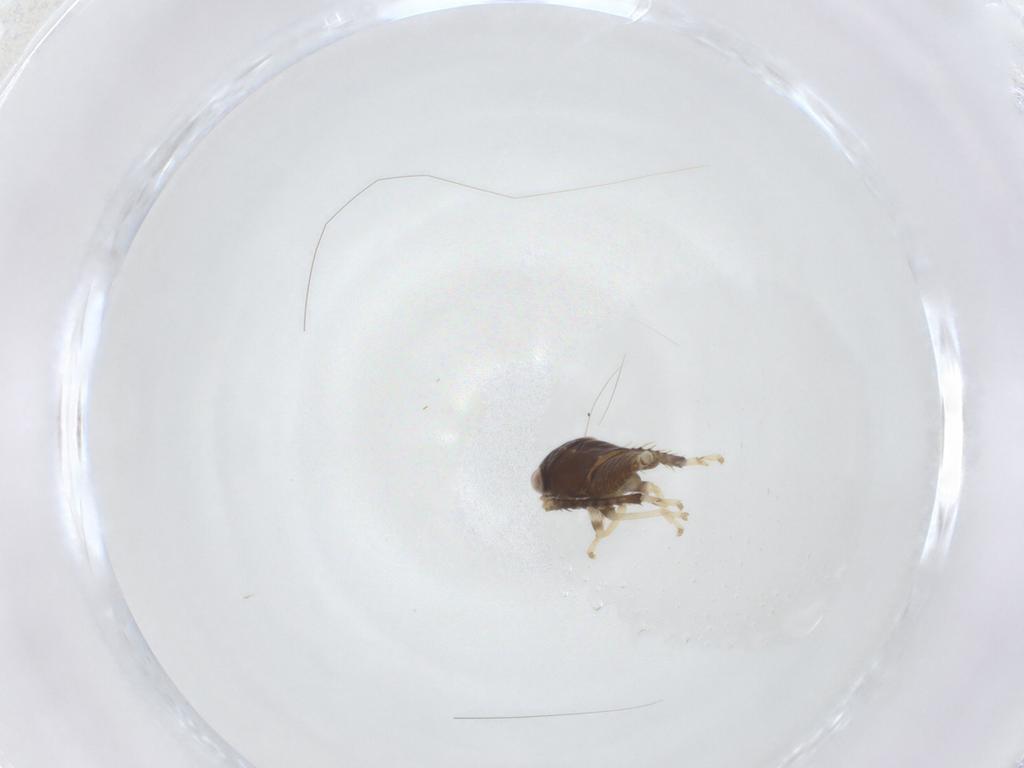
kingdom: Animalia
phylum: Arthropoda
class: Insecta
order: Hemiptera
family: Cicadellidae
